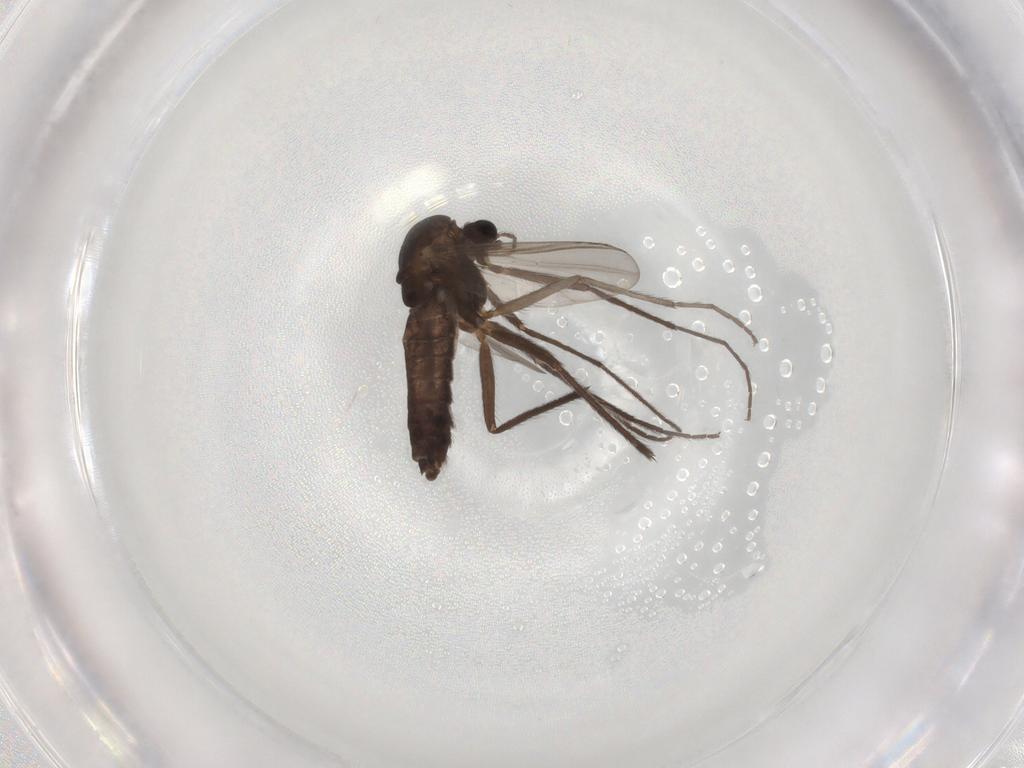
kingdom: Animalia
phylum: Arthropoda
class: Insecta
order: Diptera
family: Chironomidae
